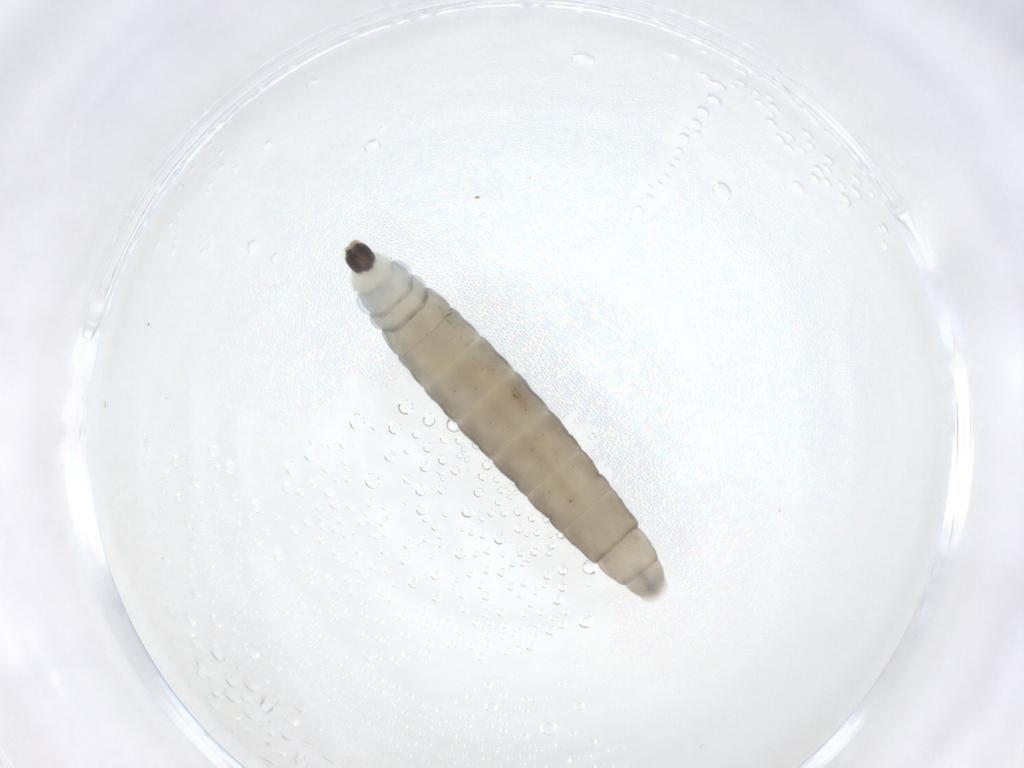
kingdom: Animalia
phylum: Arthropoda
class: Insecta
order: Diptera
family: Sciaridae
